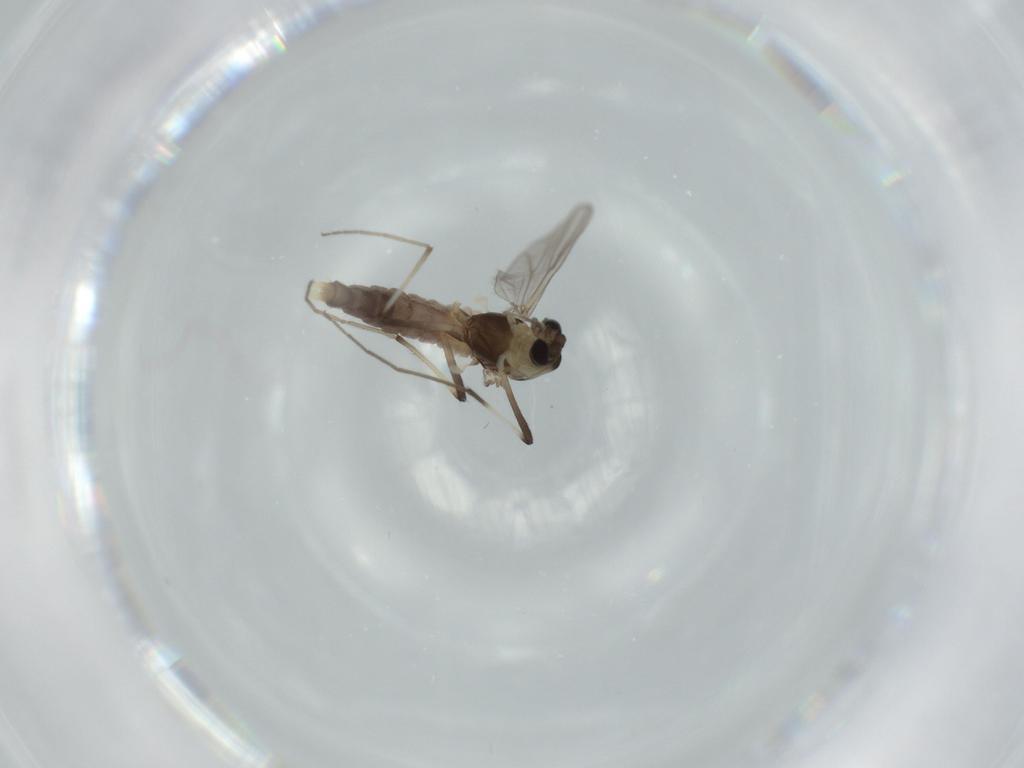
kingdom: Animalia
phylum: Arthropoda
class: Insecta
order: Diptera
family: Chironomidae
